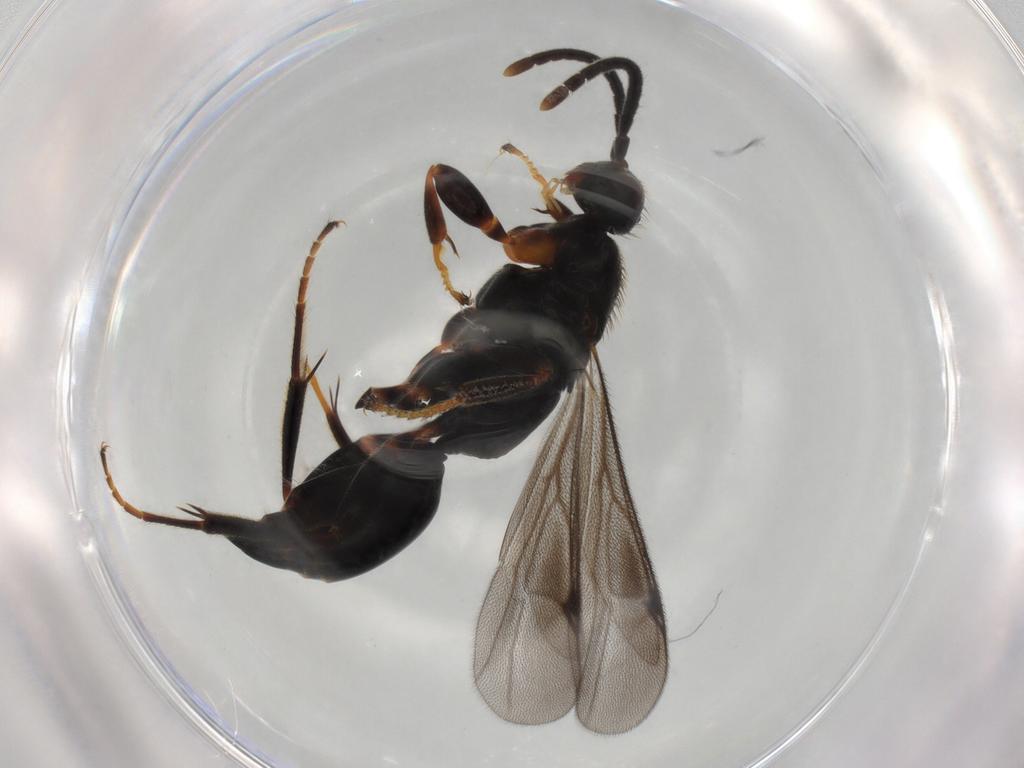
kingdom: Animalia
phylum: Arthropoda
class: Insecta
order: Hymenoptera
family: Proctotrupidae
